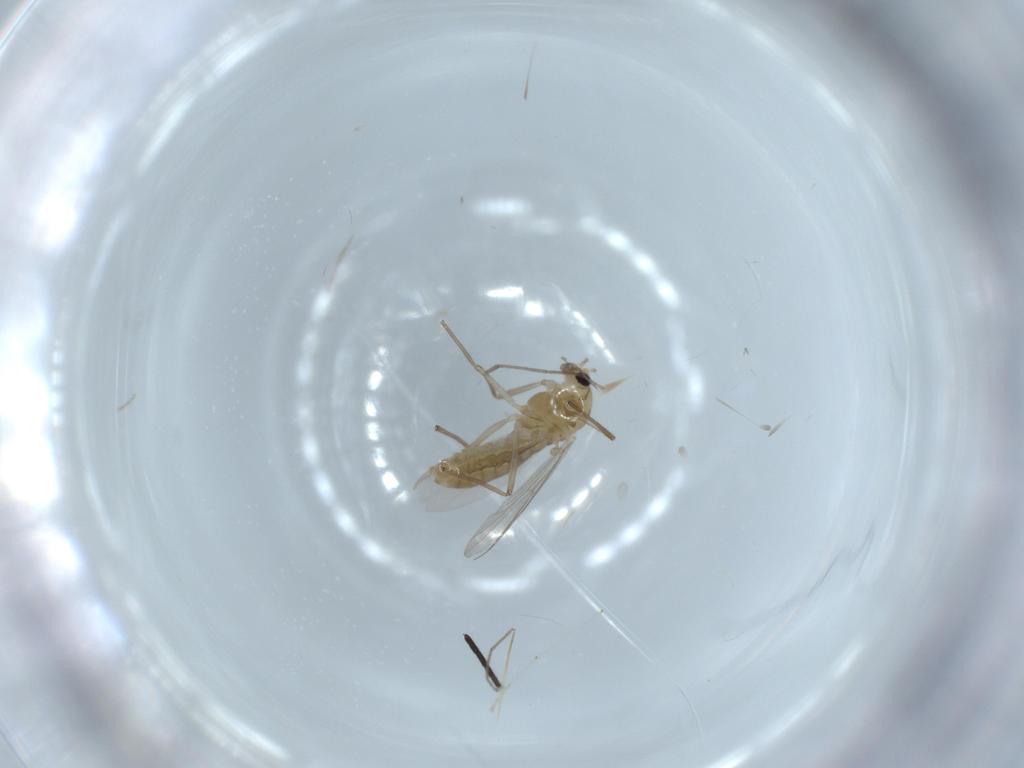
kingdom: Animalia
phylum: Arthropoda
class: Insecta
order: Diptera
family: Chironomidae
